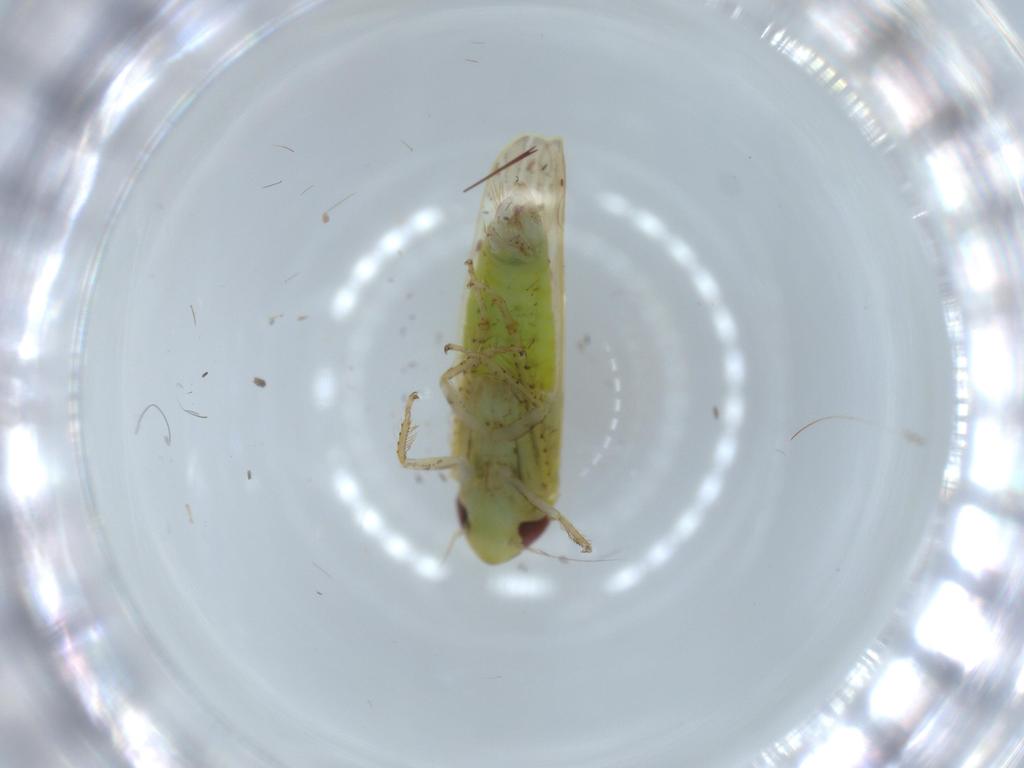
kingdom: Animalia
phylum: Arthropoda
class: Insecta
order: Hemiptera
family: Cicadellidae
